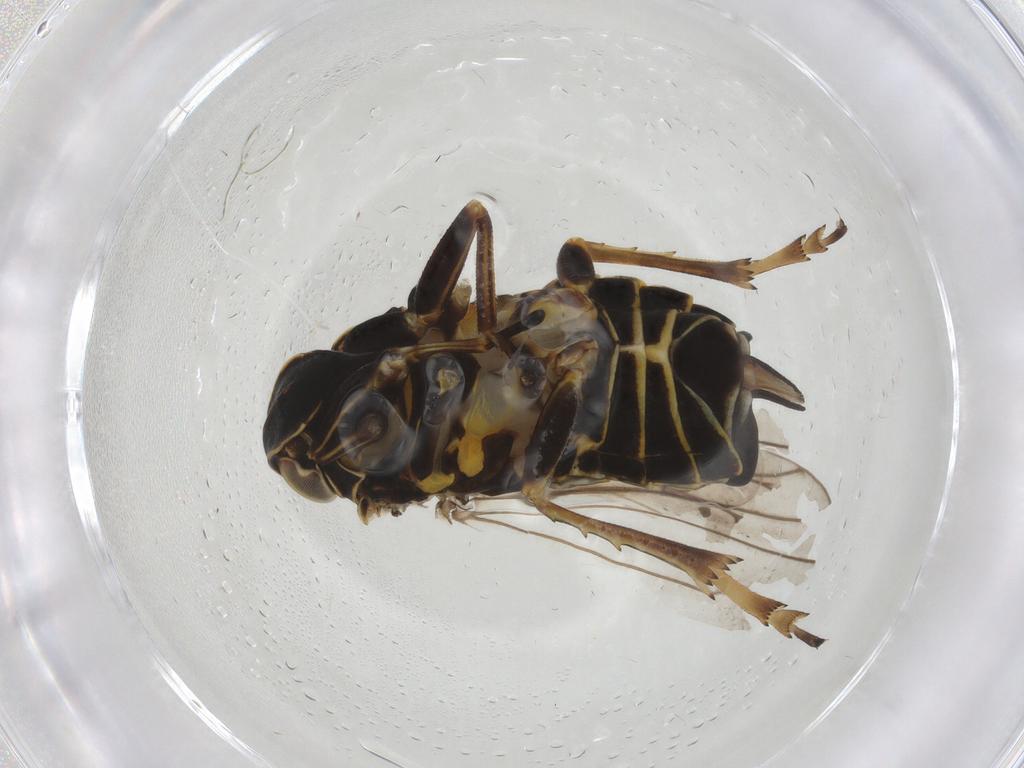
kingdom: Animalia
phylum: Arthropoda
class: Insecta
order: Hemiptera
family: Cixiidae
